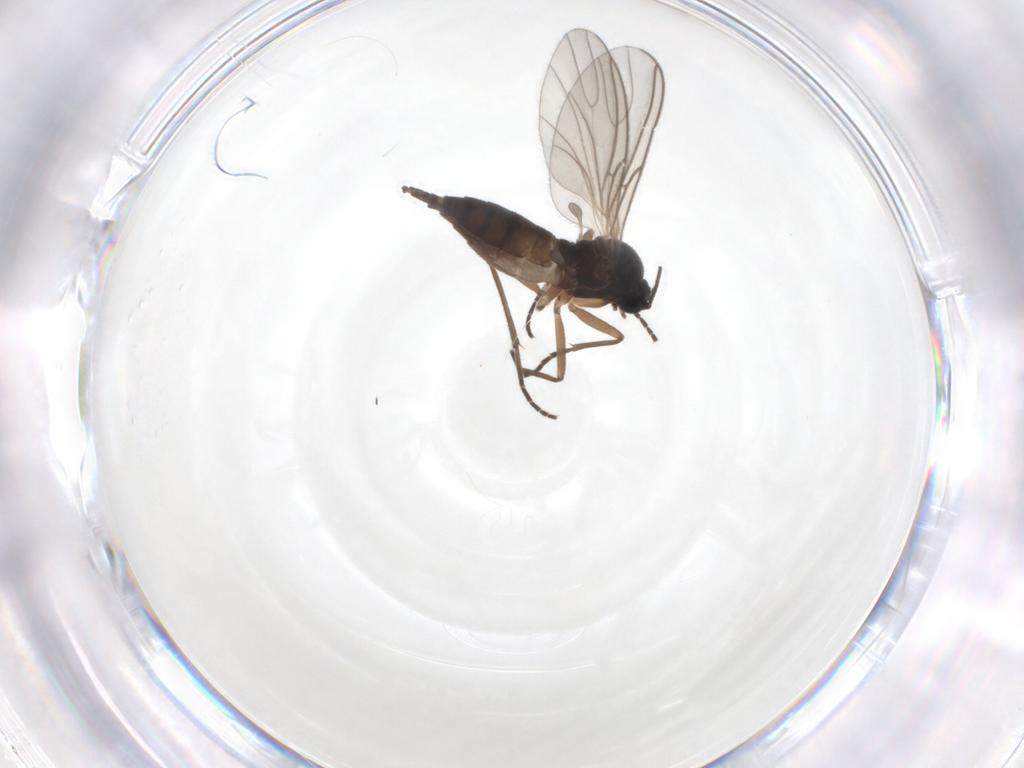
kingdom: Animalia
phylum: Arthropoda
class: Insecta
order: Diptera
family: Sciaridae
